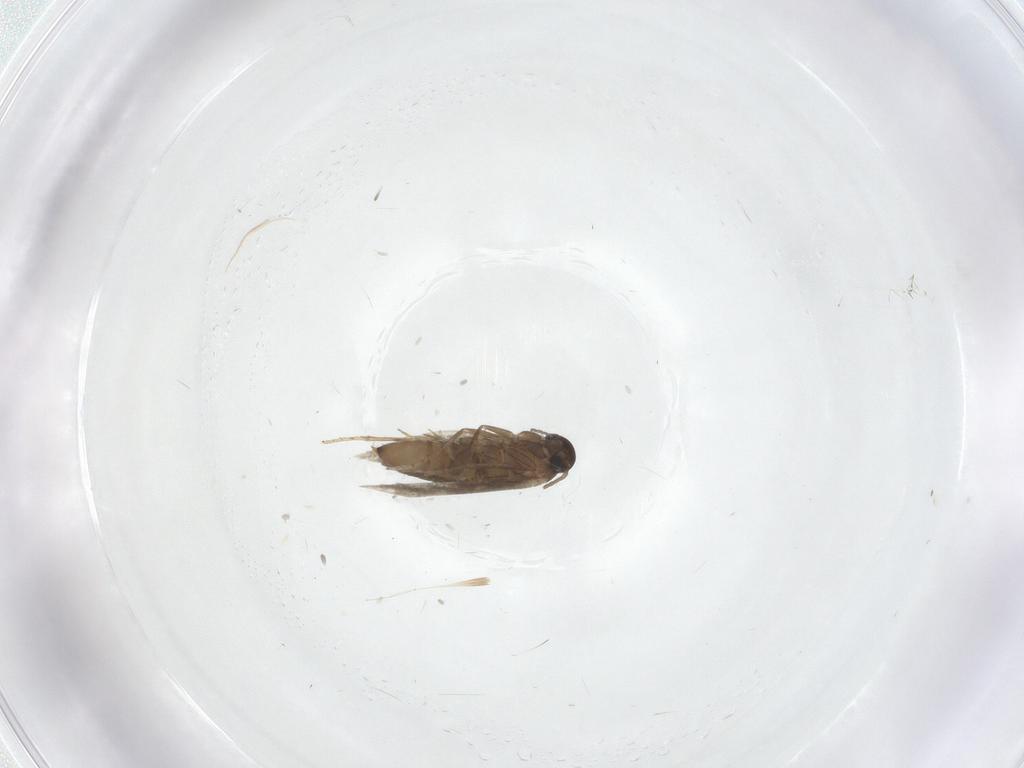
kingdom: Animalia
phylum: Arthropoda
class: Insecta
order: Lepidoptera
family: Heliozelidae
